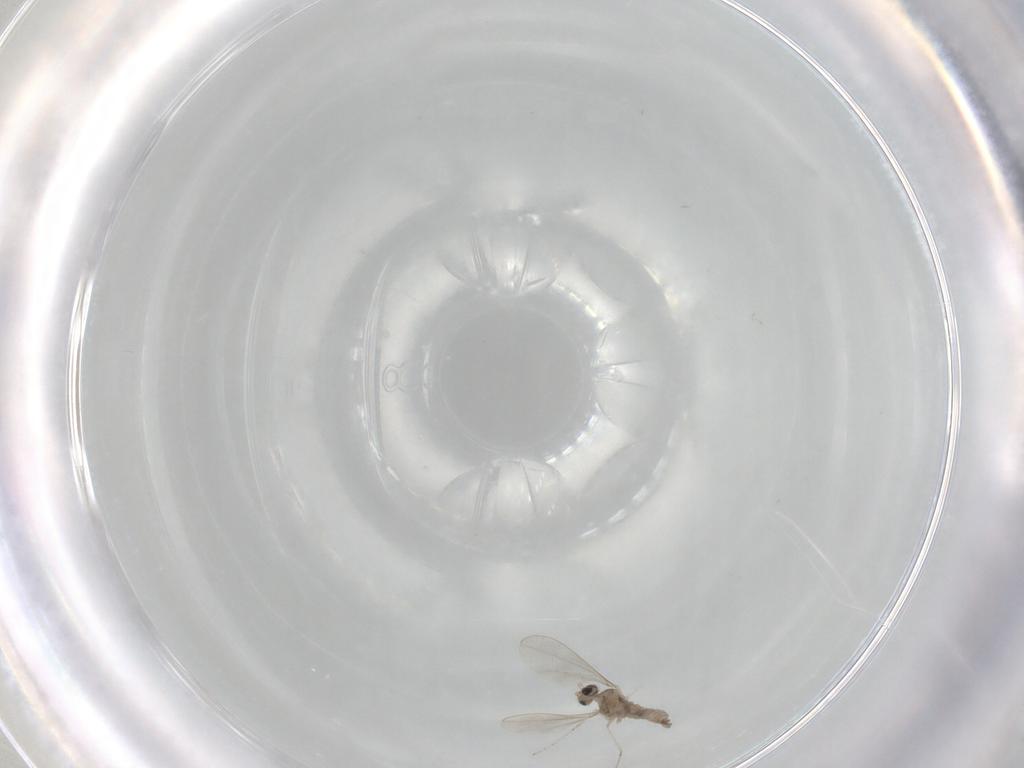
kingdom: Animalia
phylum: Arthropoda
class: Insecta
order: Diptera
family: Cecidomyiidae
